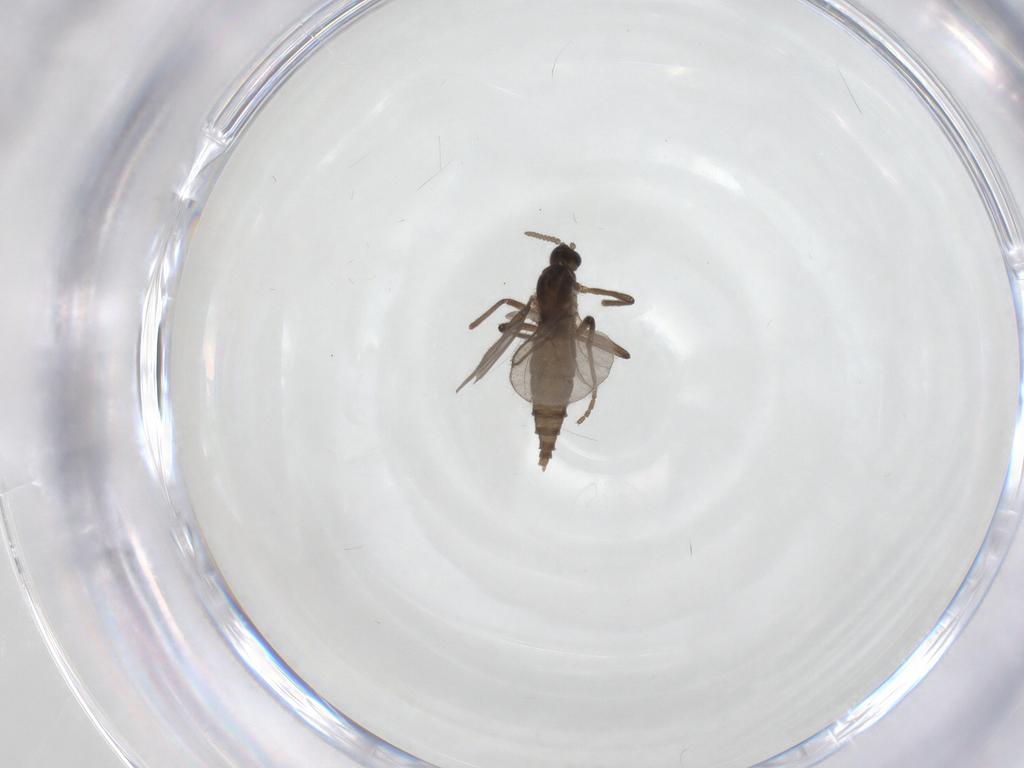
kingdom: Animalia
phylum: Arthropoda
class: Insecta
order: Diptera
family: Cecidomyiidae
